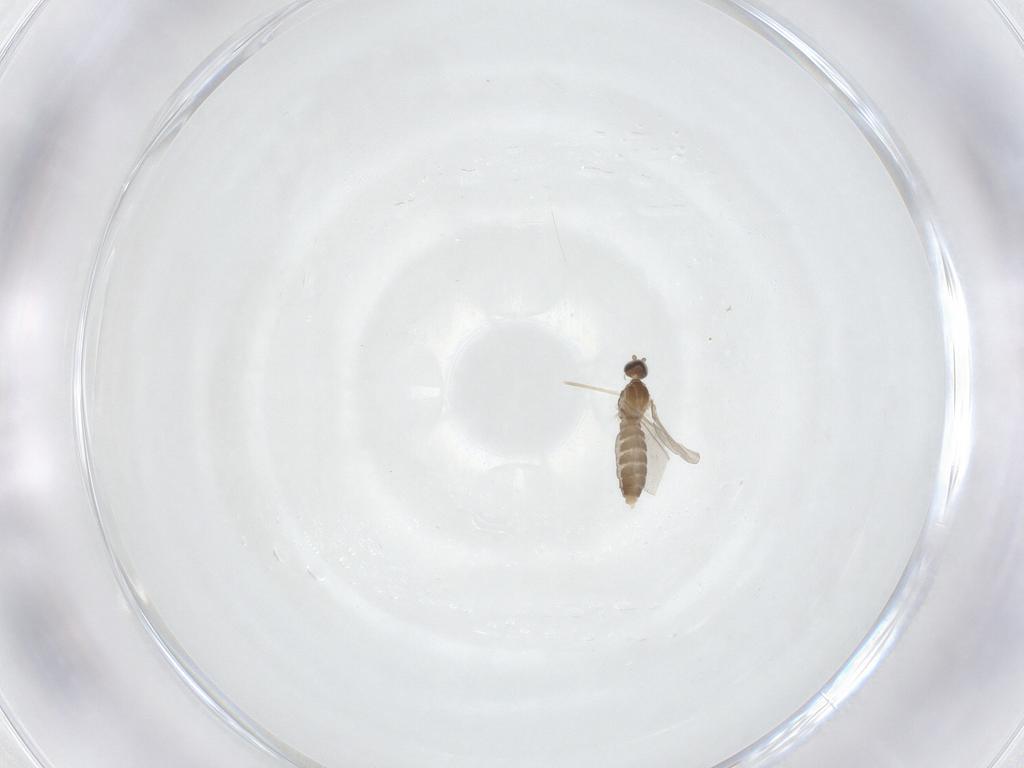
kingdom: Animalia
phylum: Arthropoda
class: Insecta
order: Diptera
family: Cecidomyiidae
